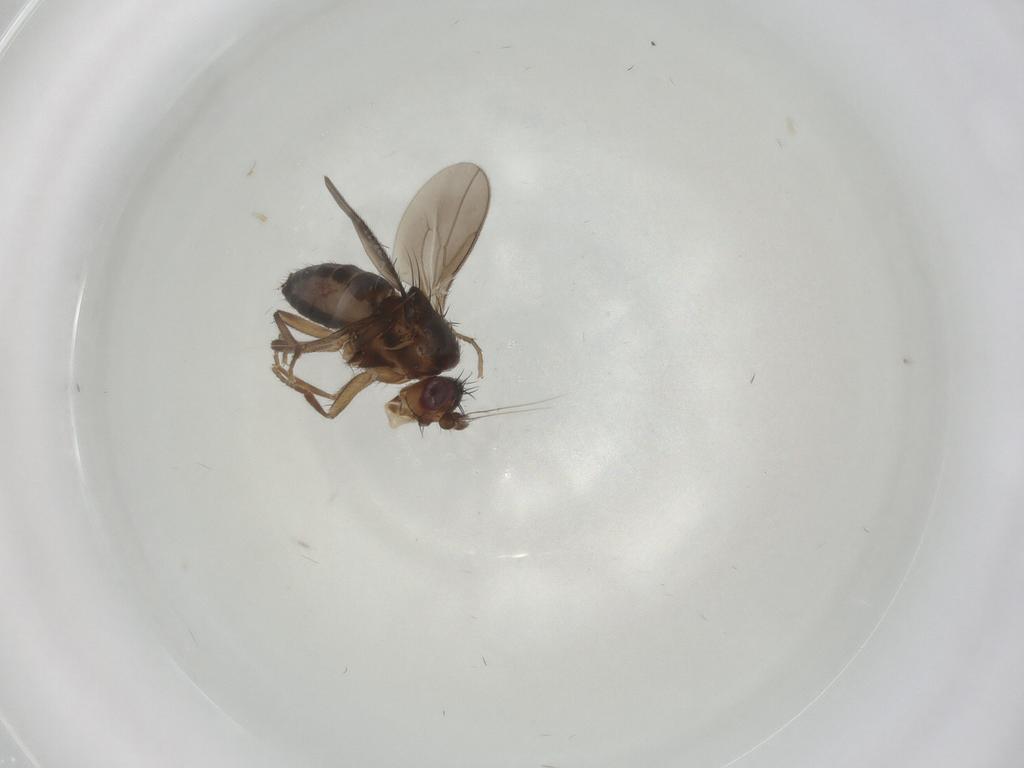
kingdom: Animalia
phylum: Arthropoda
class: Insecta
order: Diptera
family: Sphaeroceridae
